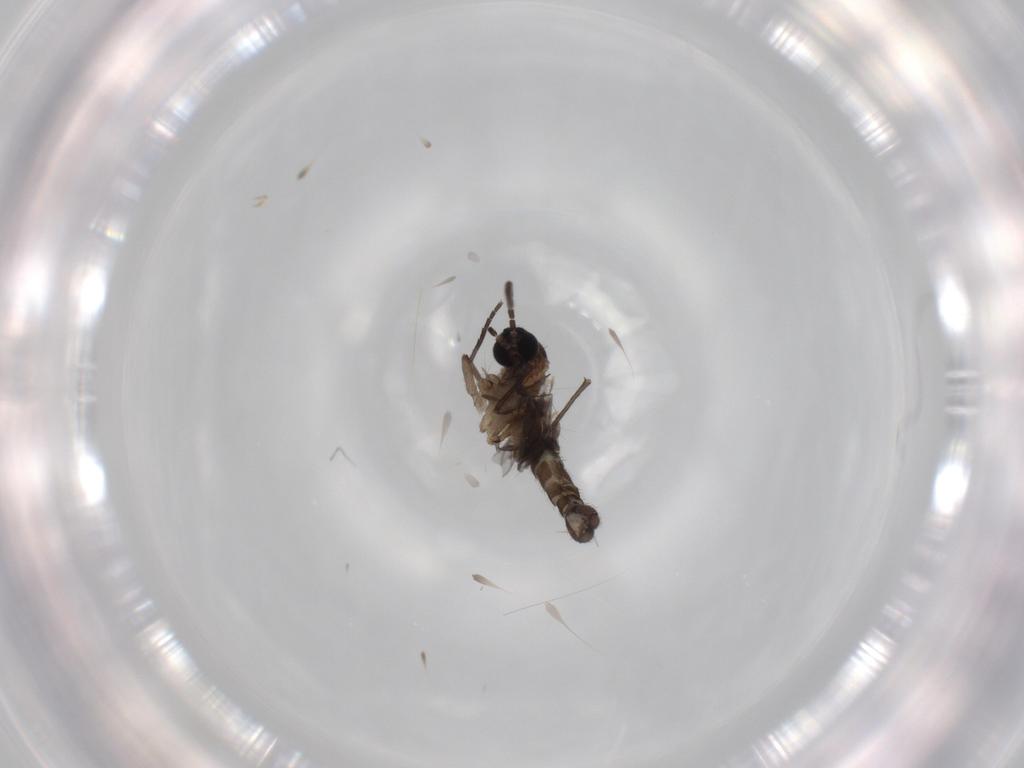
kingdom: Animalia
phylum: Arthropoda
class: Insecta
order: Diptera
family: Sciaridae
